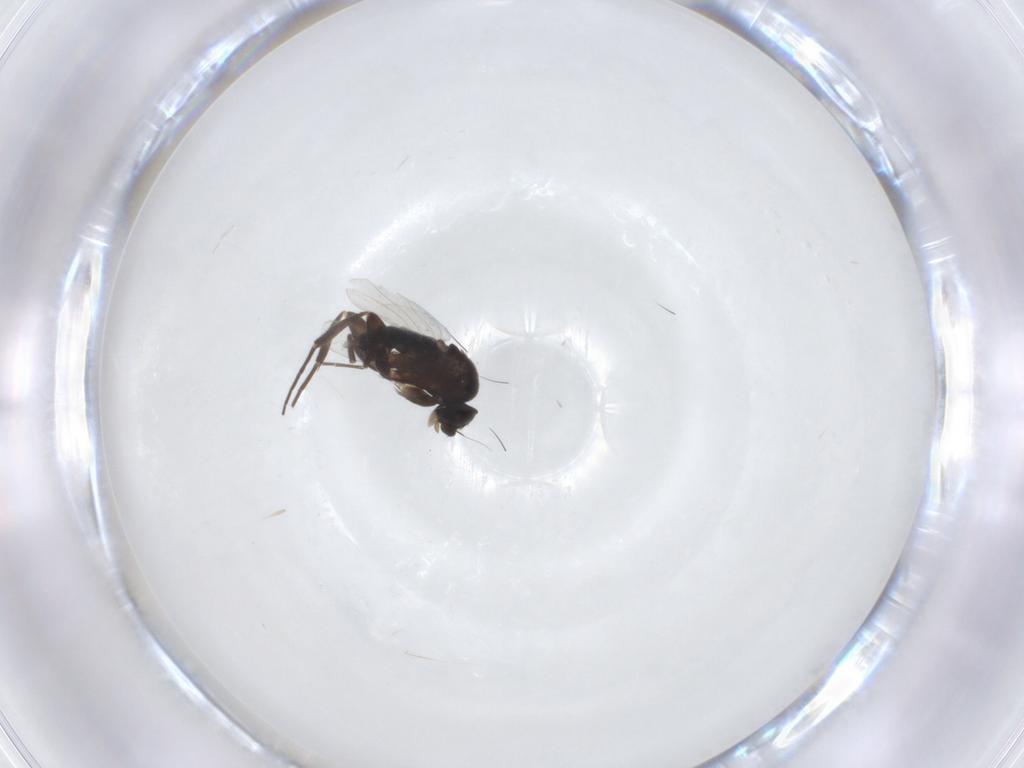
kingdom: Animalia
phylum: Arthropoda
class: Insecta
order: Diptera
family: Phoridae
